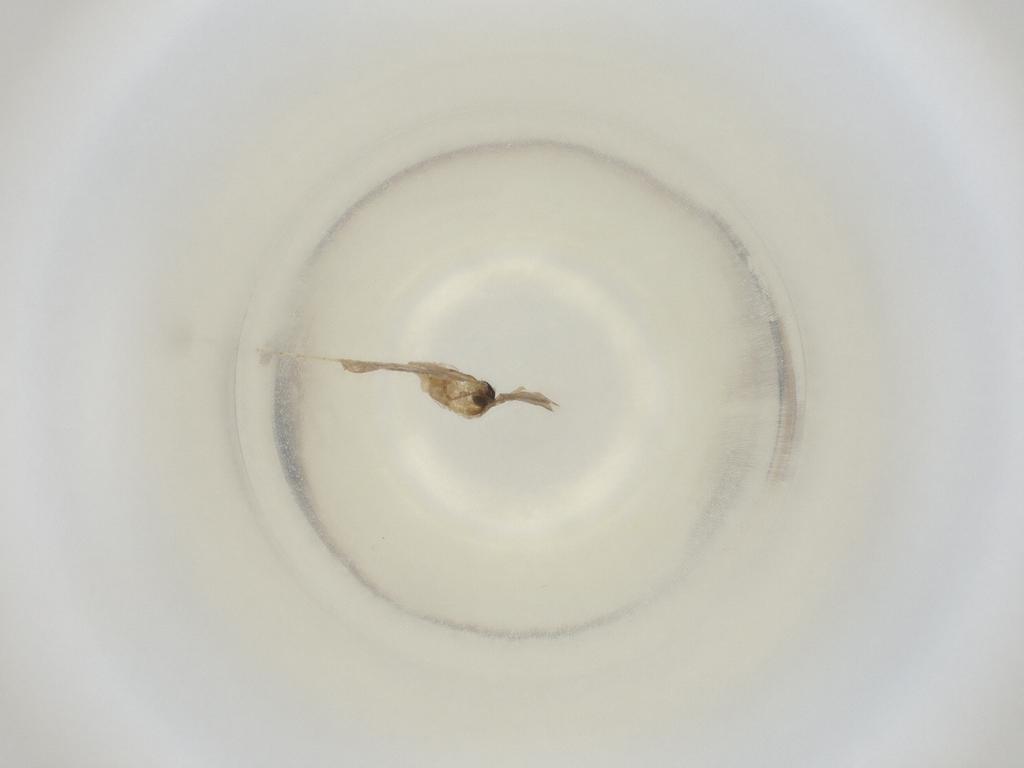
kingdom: Animalia
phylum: Arthropoda
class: Insecta
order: Diptera
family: Cecidomyiidae
